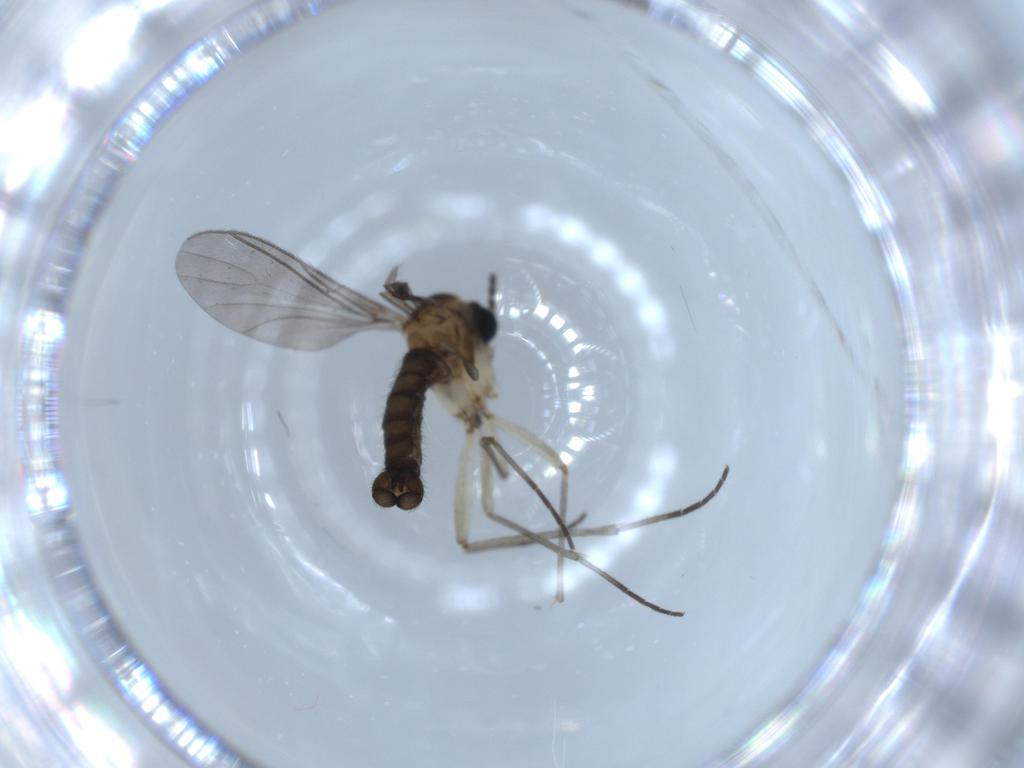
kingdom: Animalia
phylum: Arthropoda
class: Insecta
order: Diptera
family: Sciaridae
